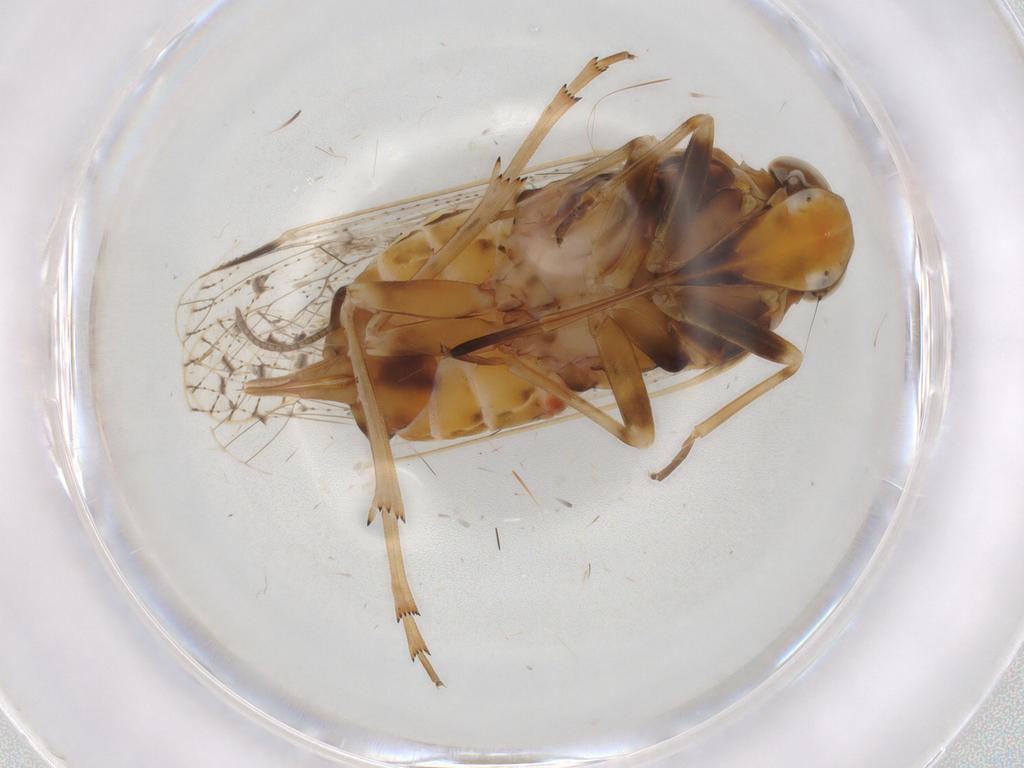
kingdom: Animalia
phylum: Arthropoda
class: Insecta
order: Hemiptera
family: Cixiidae
